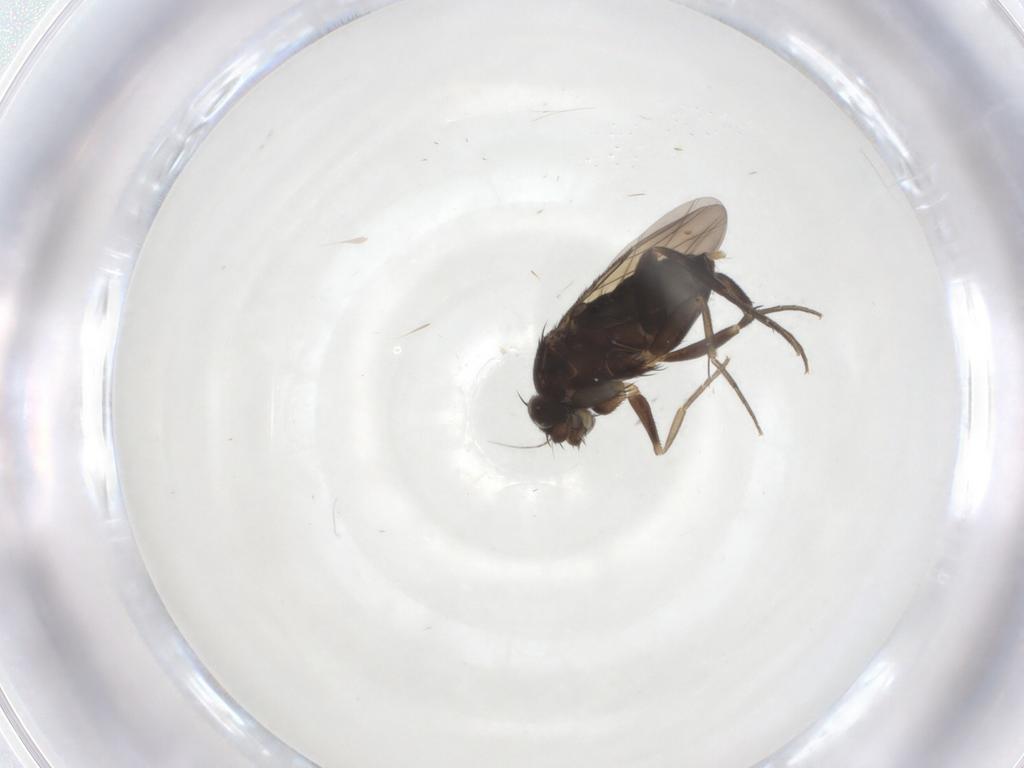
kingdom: Animalia
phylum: Arthropoda
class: Insecta
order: Diptera
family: Phoridae
